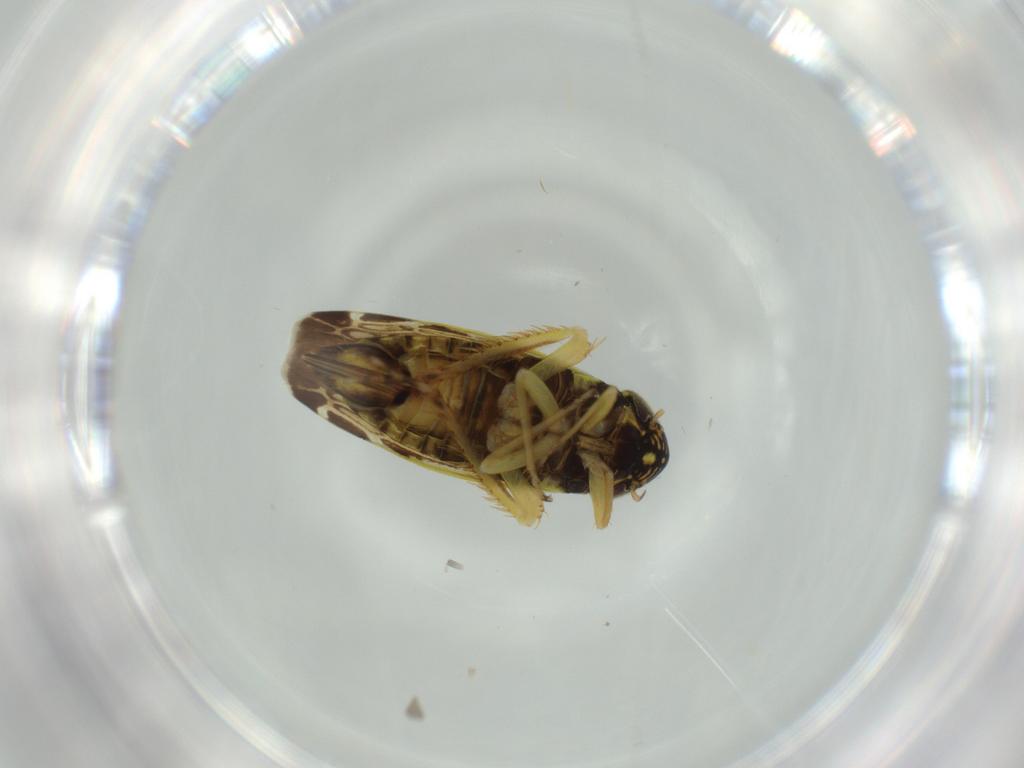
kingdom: Animalia
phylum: Arthropoda
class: Insecta
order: Hemiptera
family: Cicadellidae
